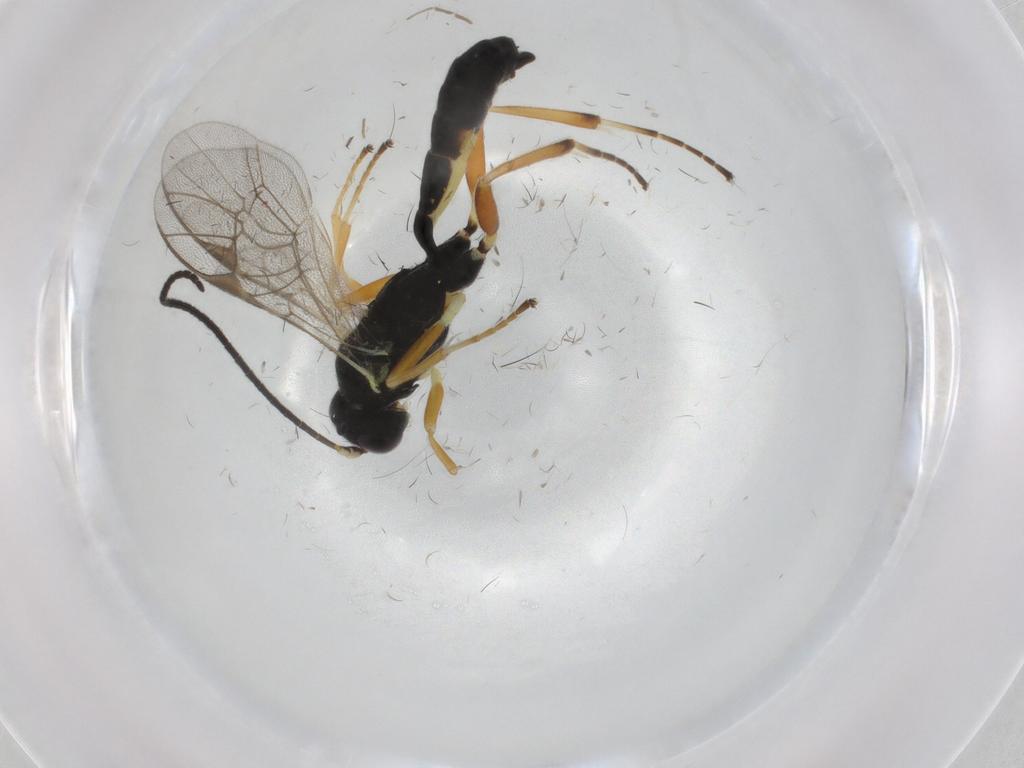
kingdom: Animalia
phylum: Arthropoda
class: Insecta
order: Hymenoptera
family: Ichneumonidae
